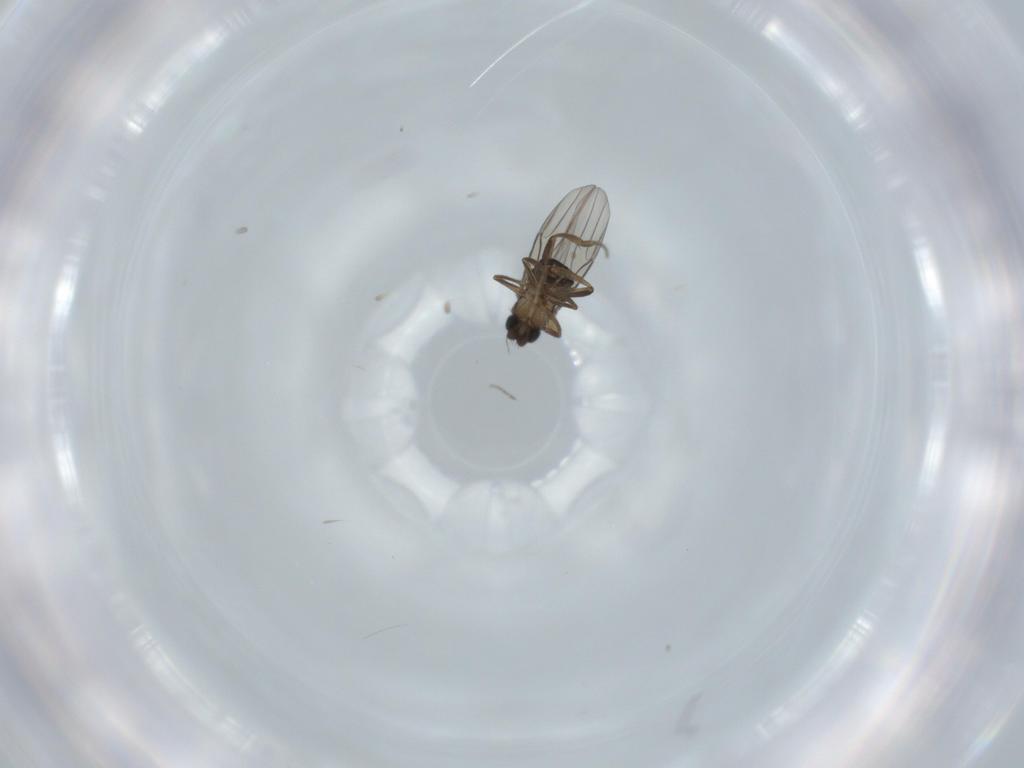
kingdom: Animalia
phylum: Arthropoda
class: Insecta
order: Diptera
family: Phoridae
